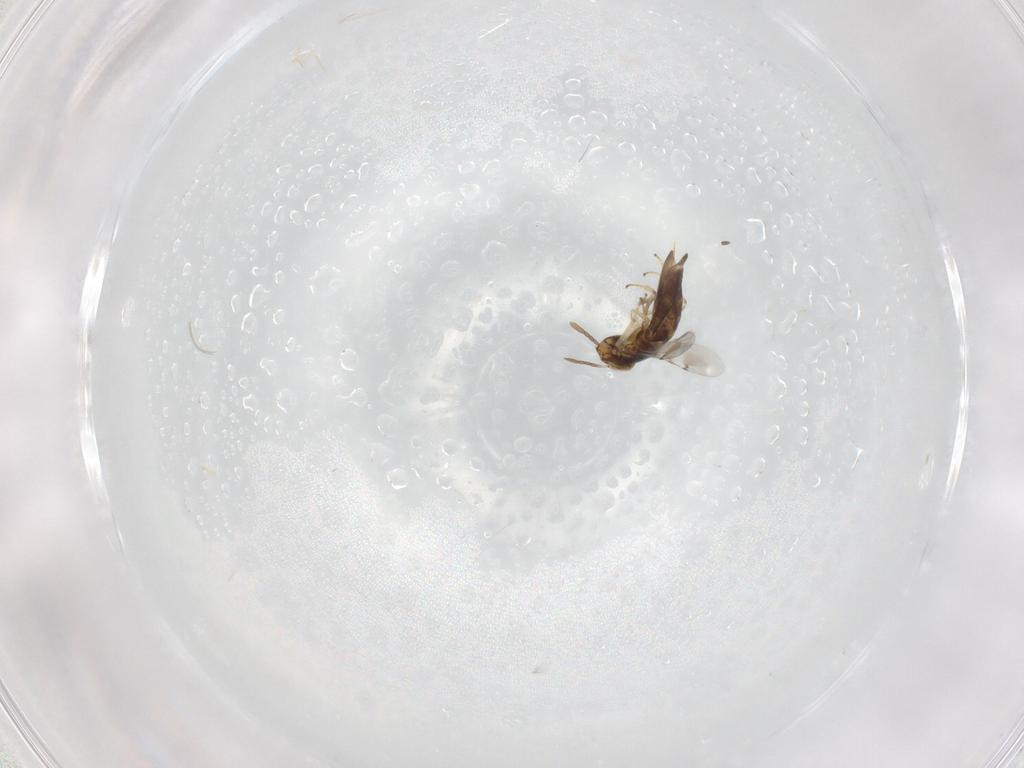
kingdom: Animalia
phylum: Arthropoda
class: Insecta
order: Hymenoptera
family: Encyrtidae
